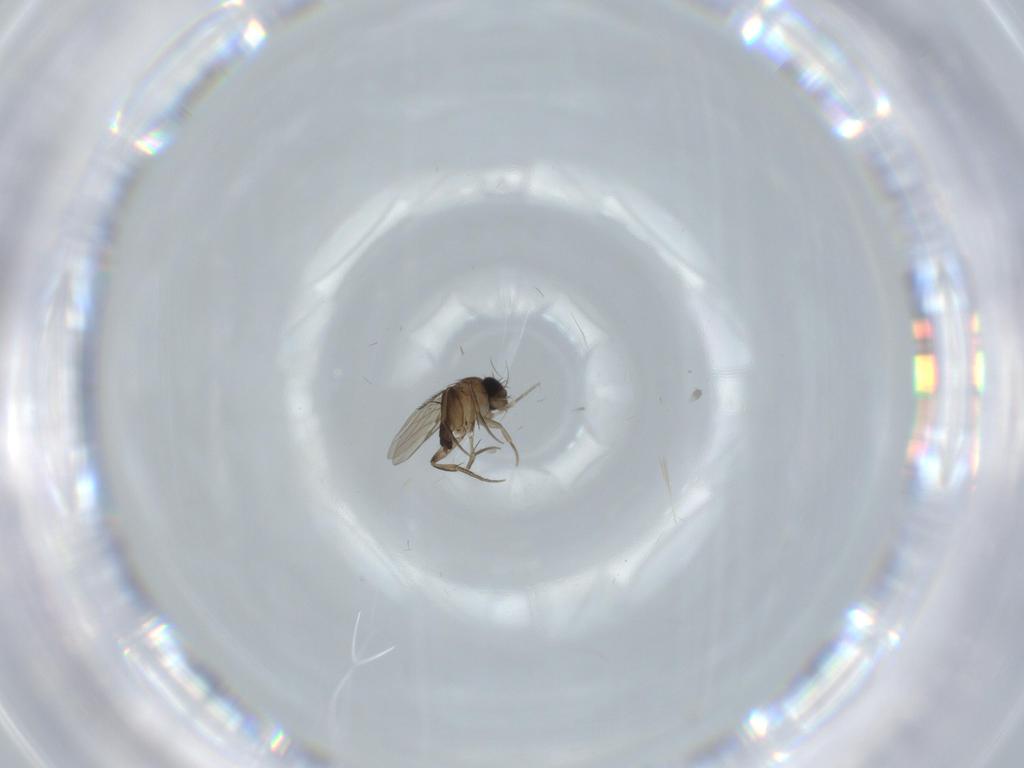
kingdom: Animalia
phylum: Arthropoda
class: Insecta
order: Diptera
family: Phoridae
